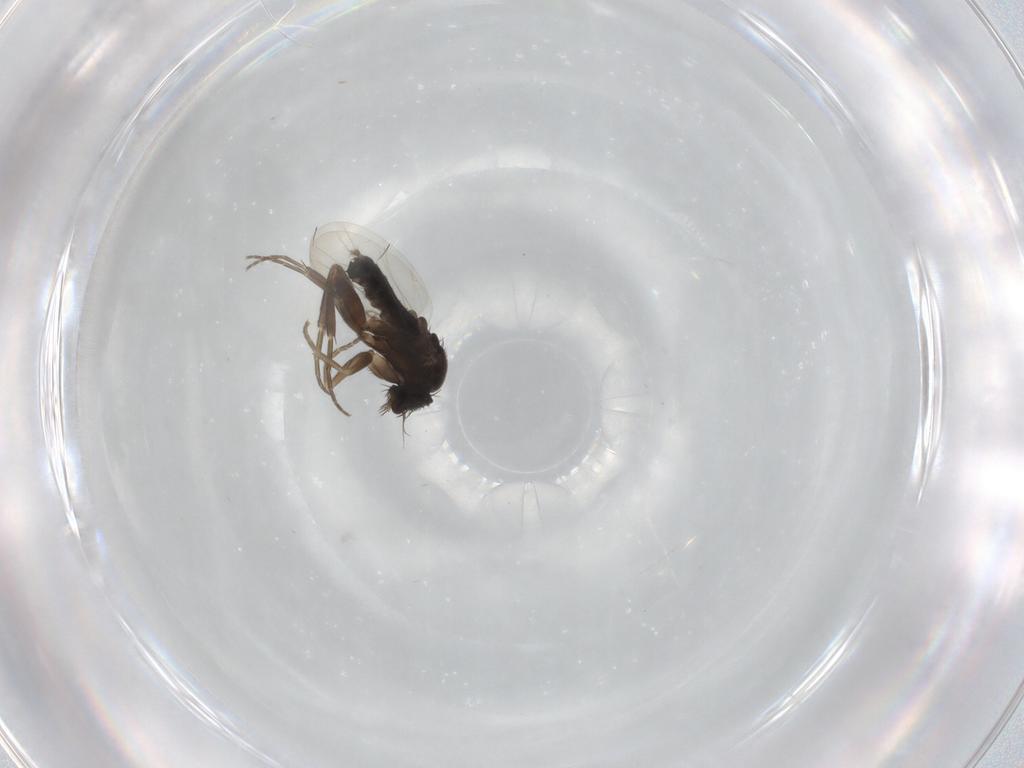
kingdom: Animalia
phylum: Arthropoda
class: Insecta
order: Diptera
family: Phoridae
